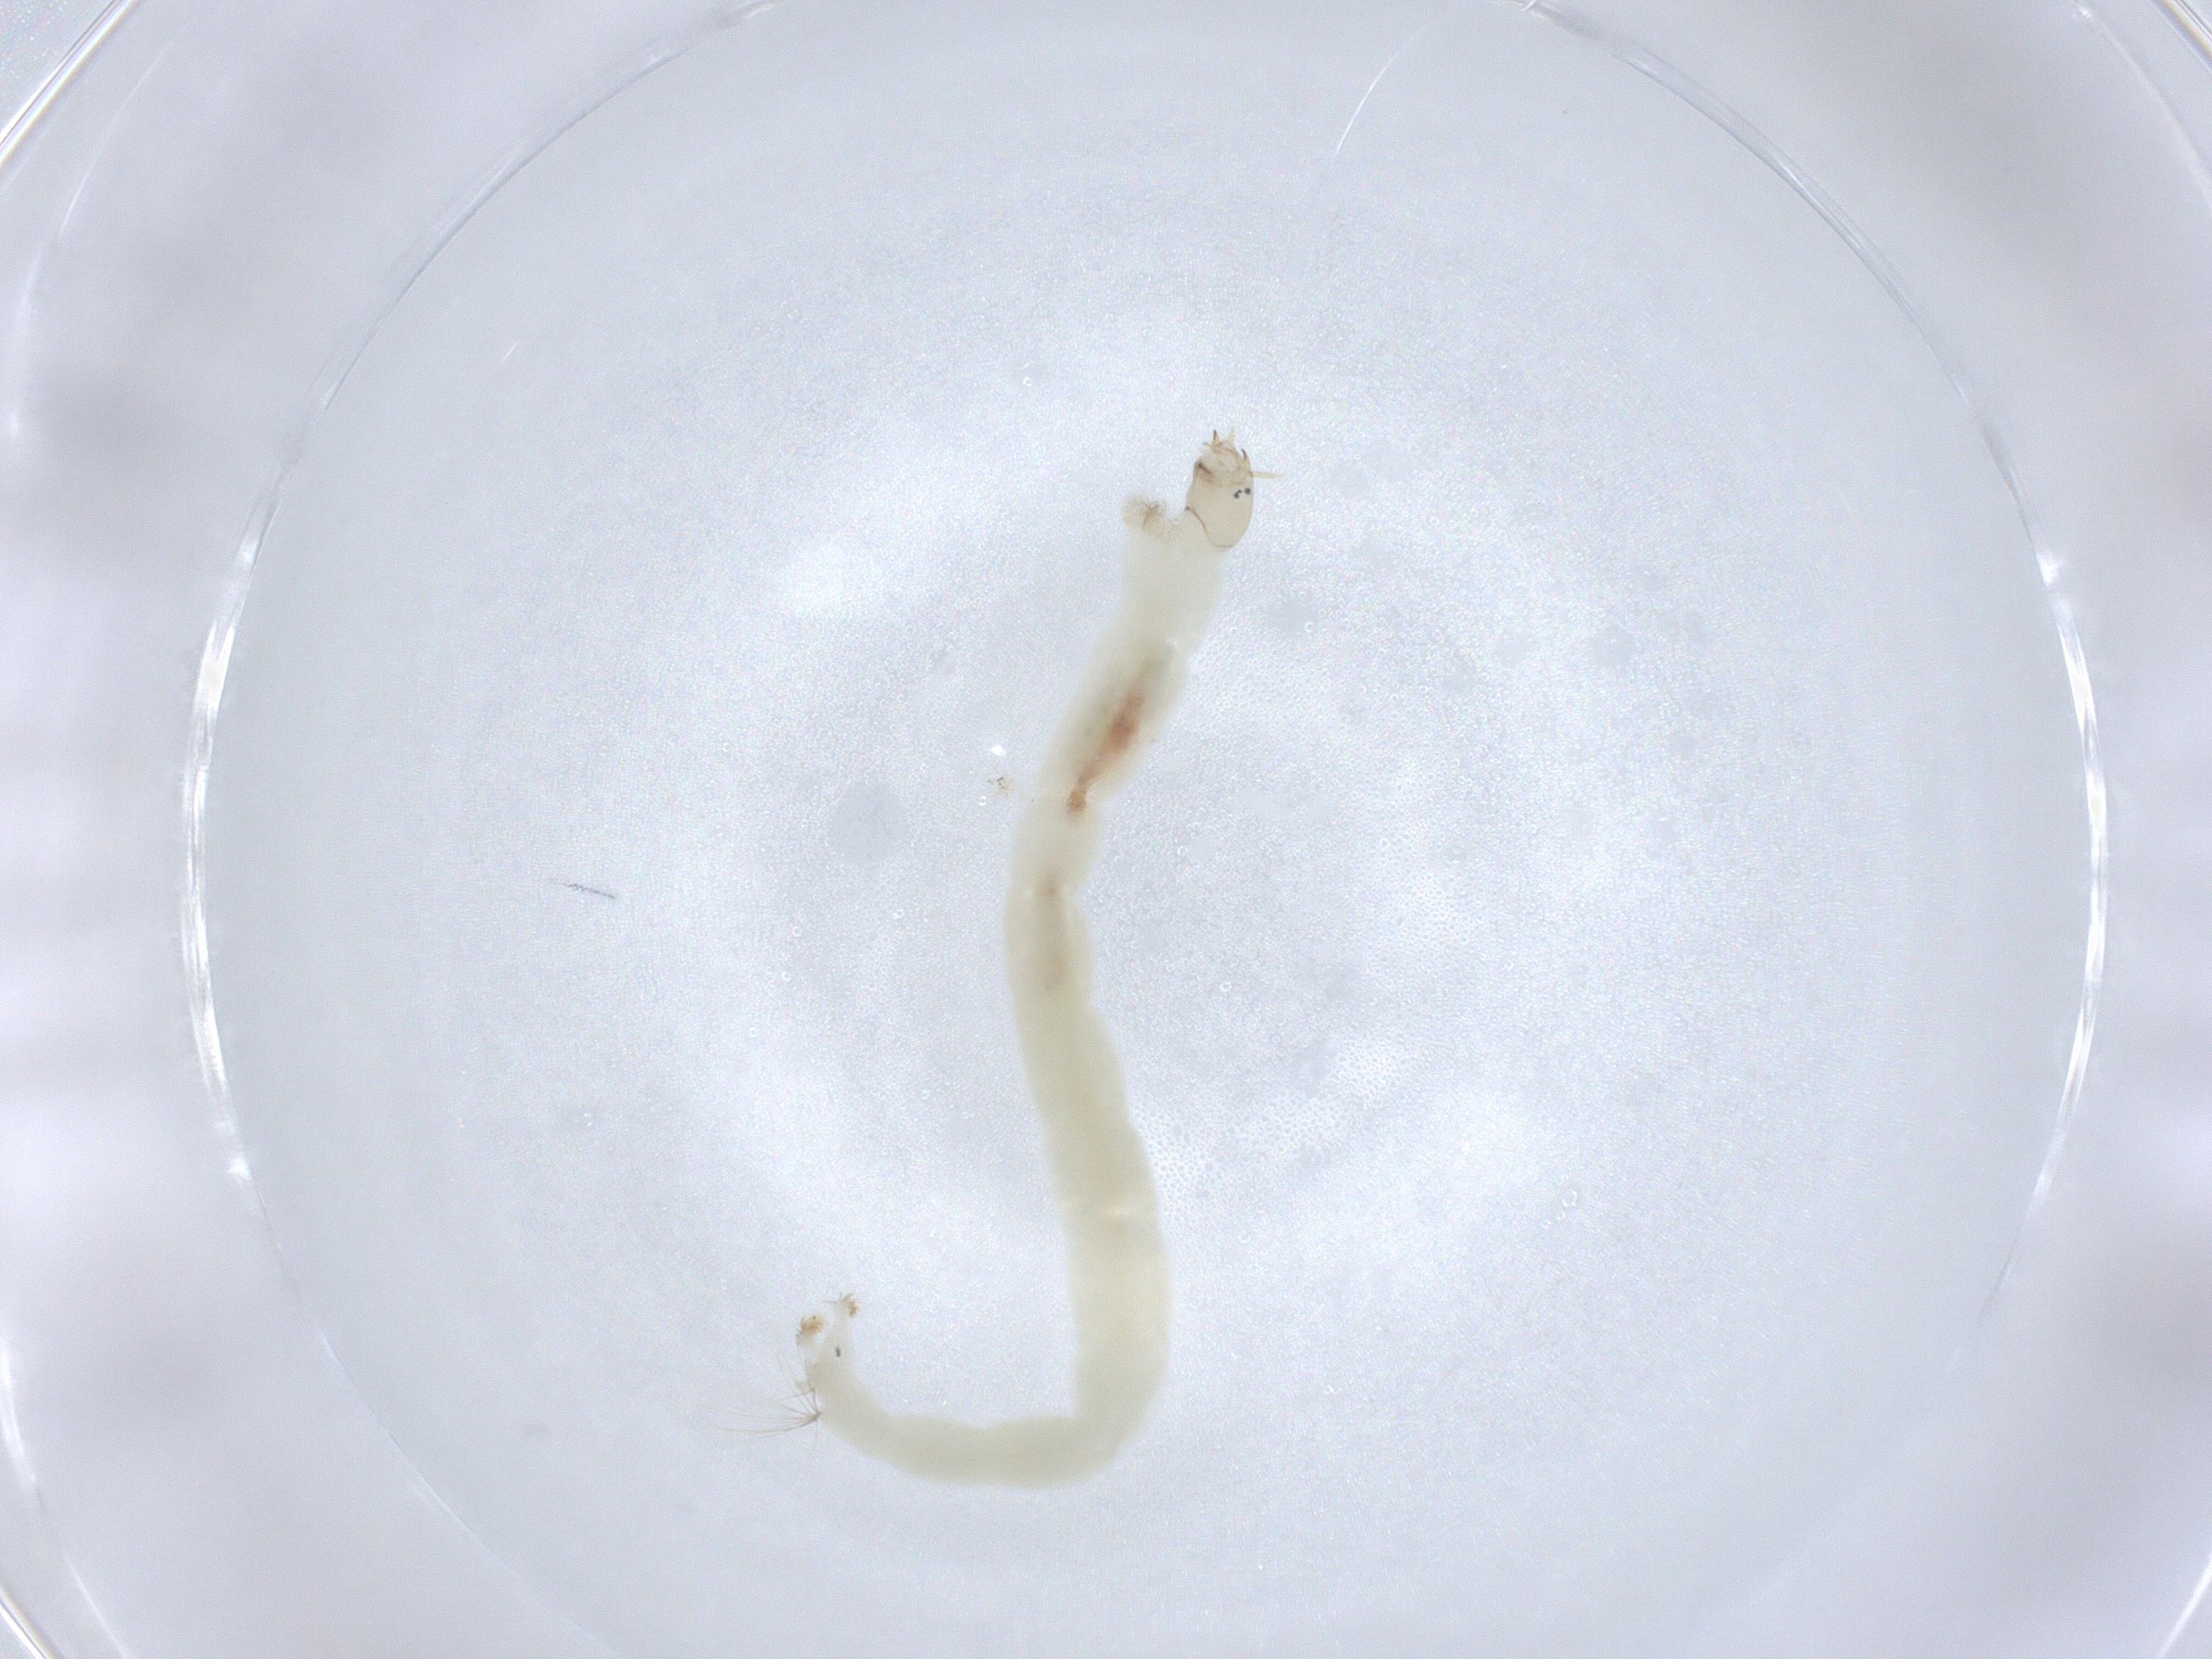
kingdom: Animalia
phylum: Arthropoda
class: Insecta
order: Diptera
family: Chironomidae
